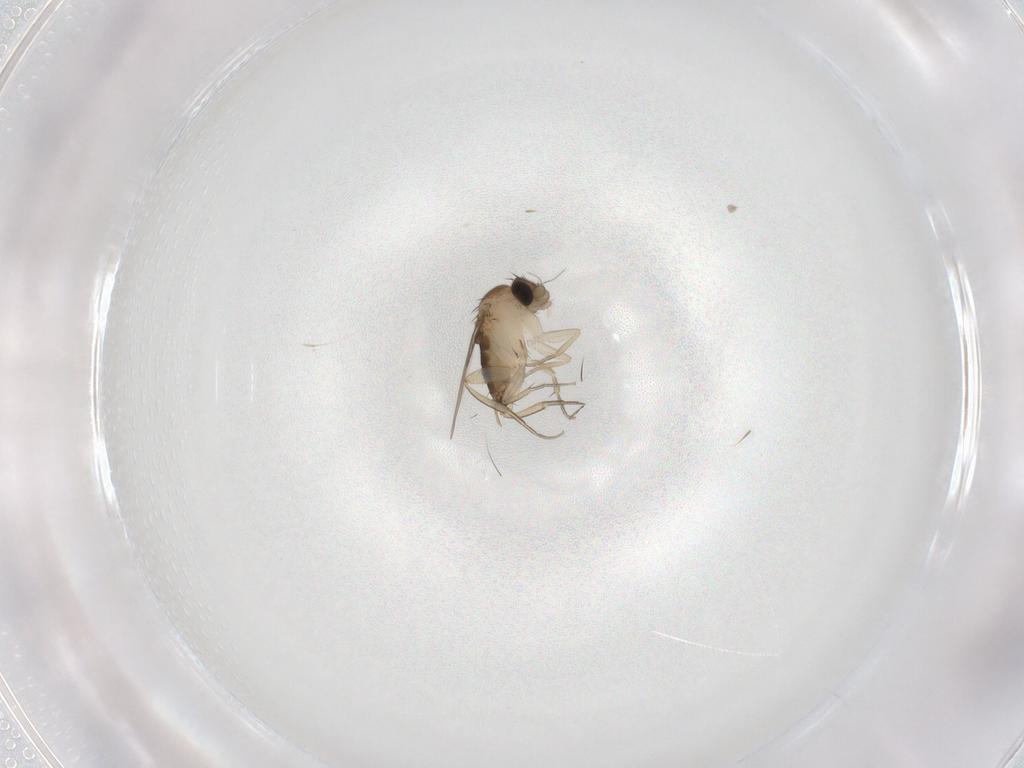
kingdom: Animalia
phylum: Arthropoda
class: Insecta
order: Diptera
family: Phoridae
